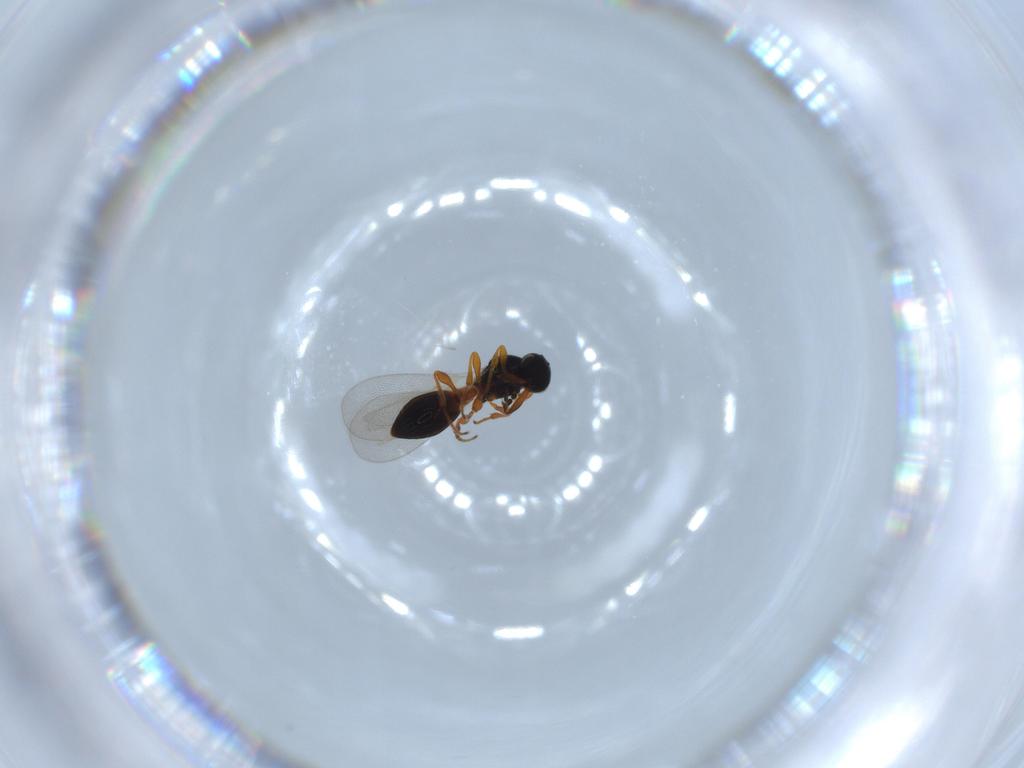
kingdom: Animalia
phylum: Arthropoda
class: Insecta
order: Hymenoptera
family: Platygastridae
